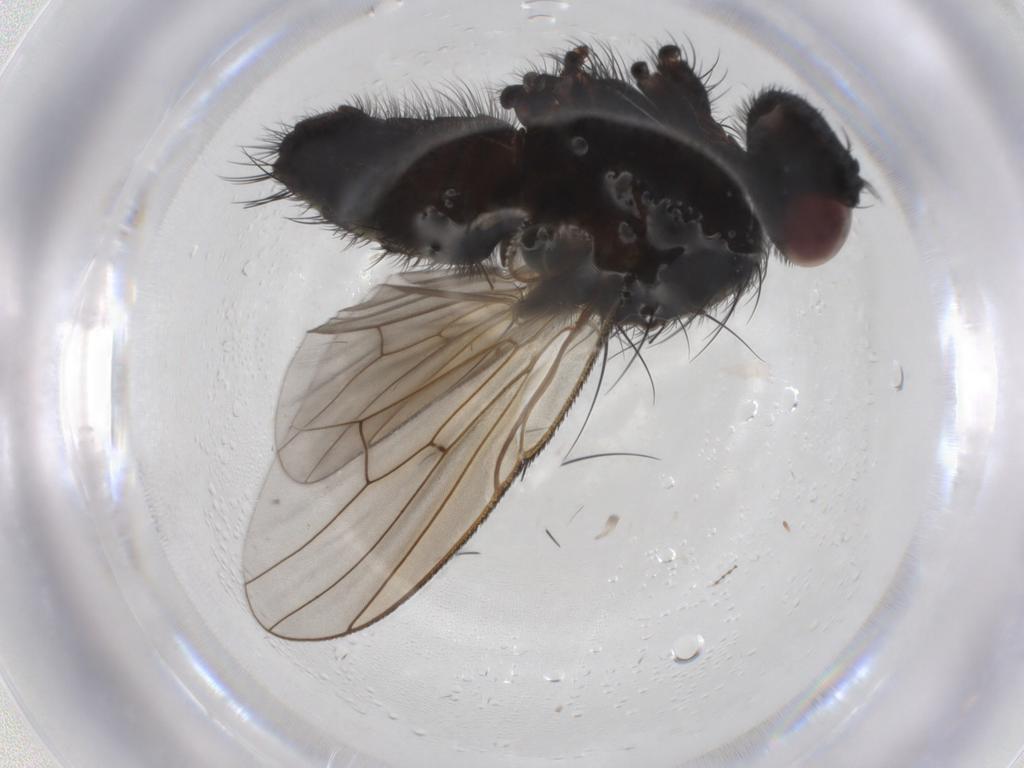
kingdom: Animalia
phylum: Arthropoda
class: Insecta
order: Diptera
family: Muscidae
